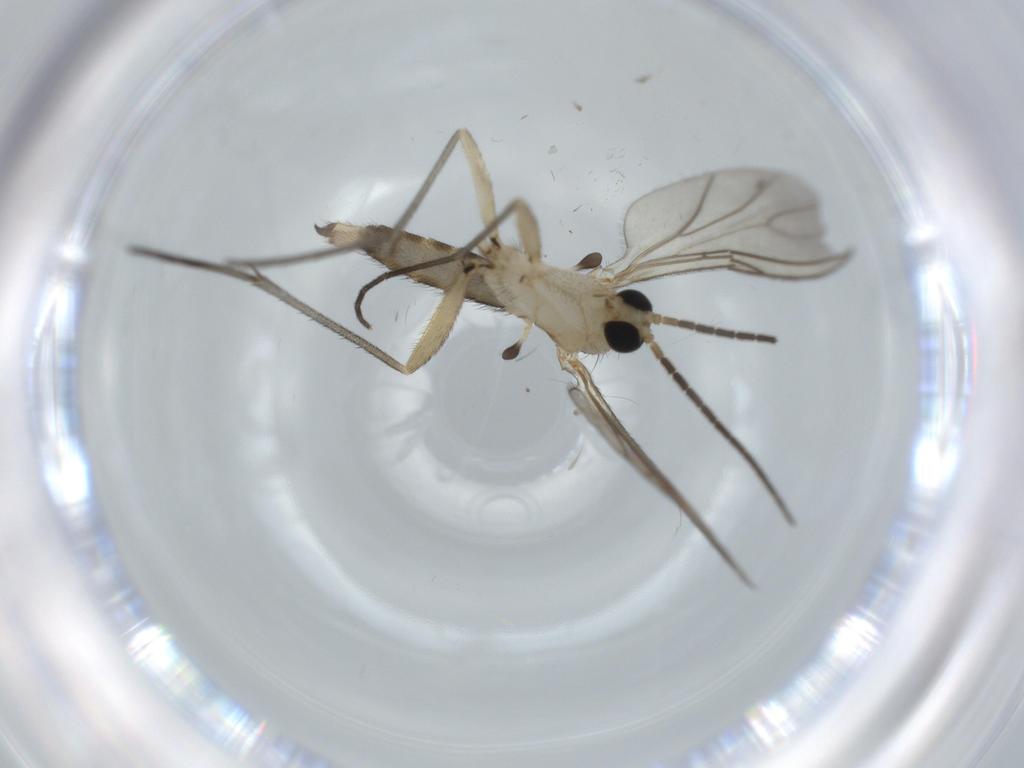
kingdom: Animalia
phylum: Arthropoda
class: Insecta
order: Diptera
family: Sciaridae
